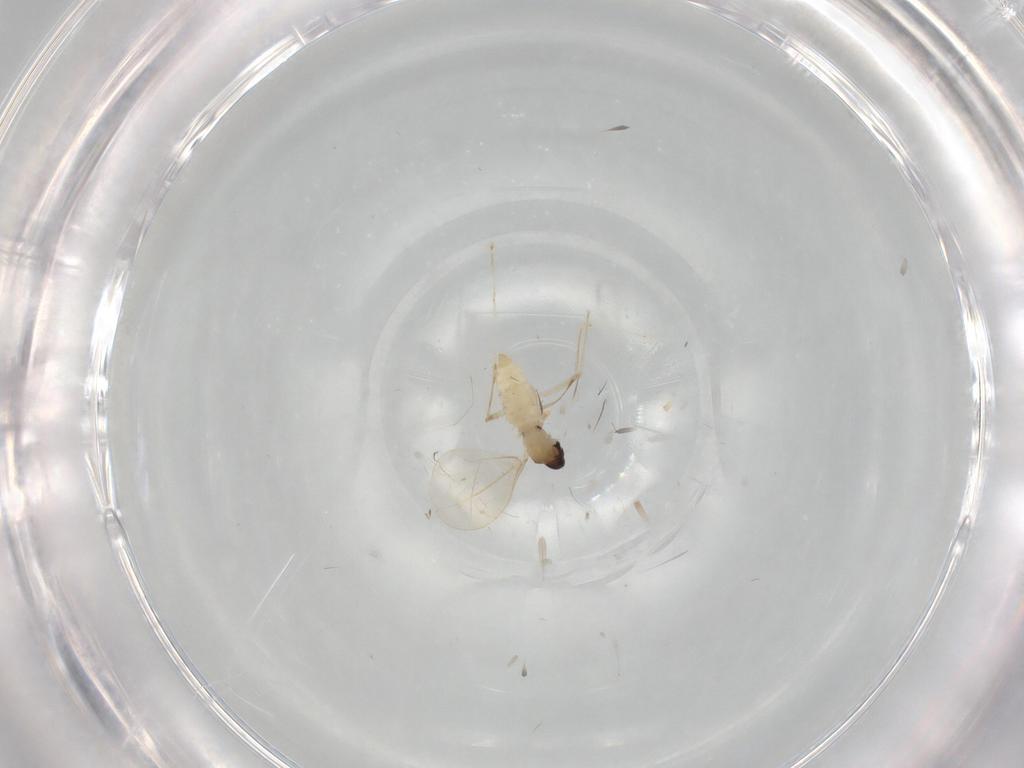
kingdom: Animalia
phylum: Arthropoda
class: Insecta
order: Diptera
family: Cecidomyiidae
